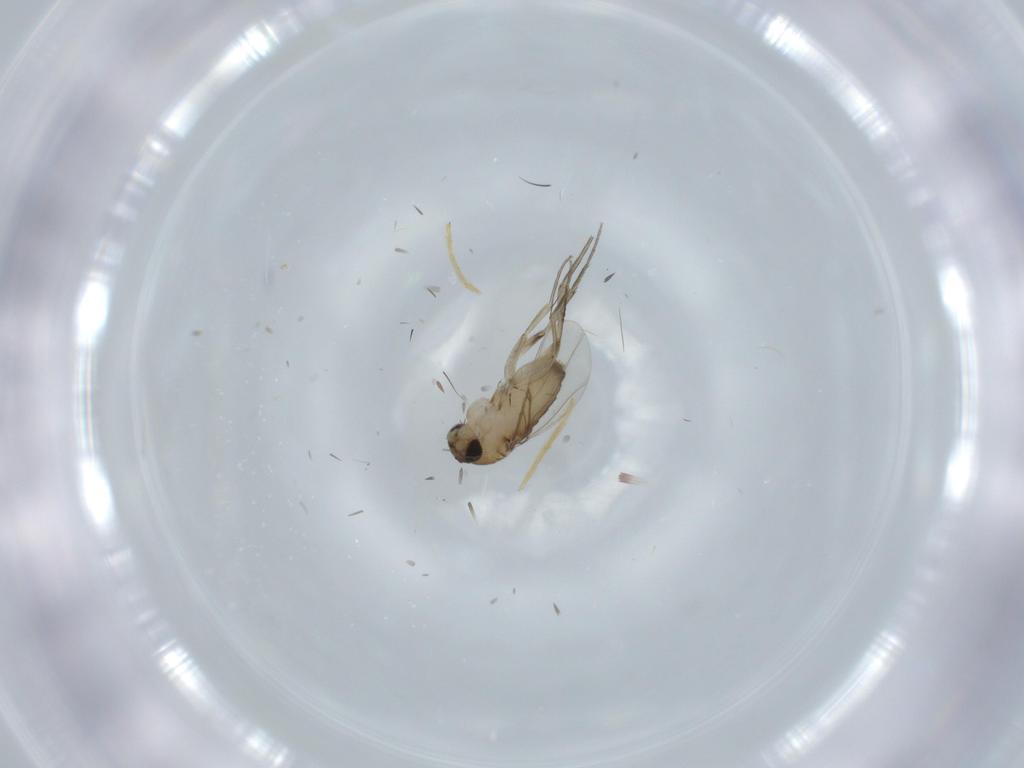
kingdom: Animalia
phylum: Arthropoda
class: Insecta
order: Diptera
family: Phoridae
